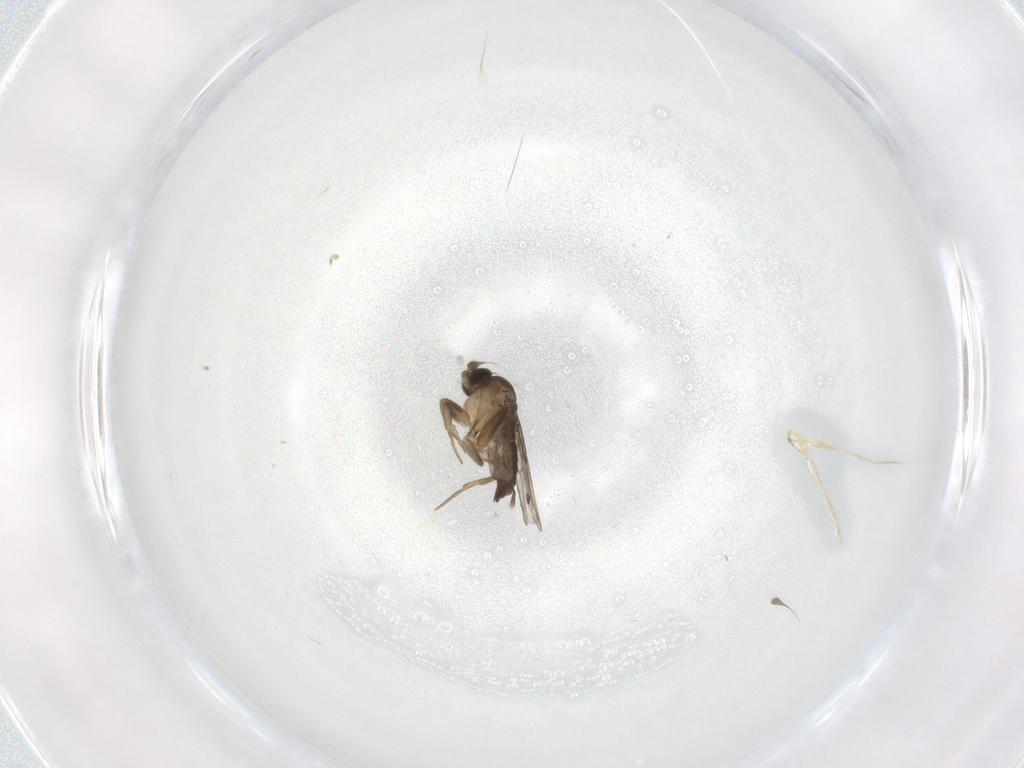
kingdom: Animalia
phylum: Arthropoda
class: Insecta
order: Diptera
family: Phoridae
